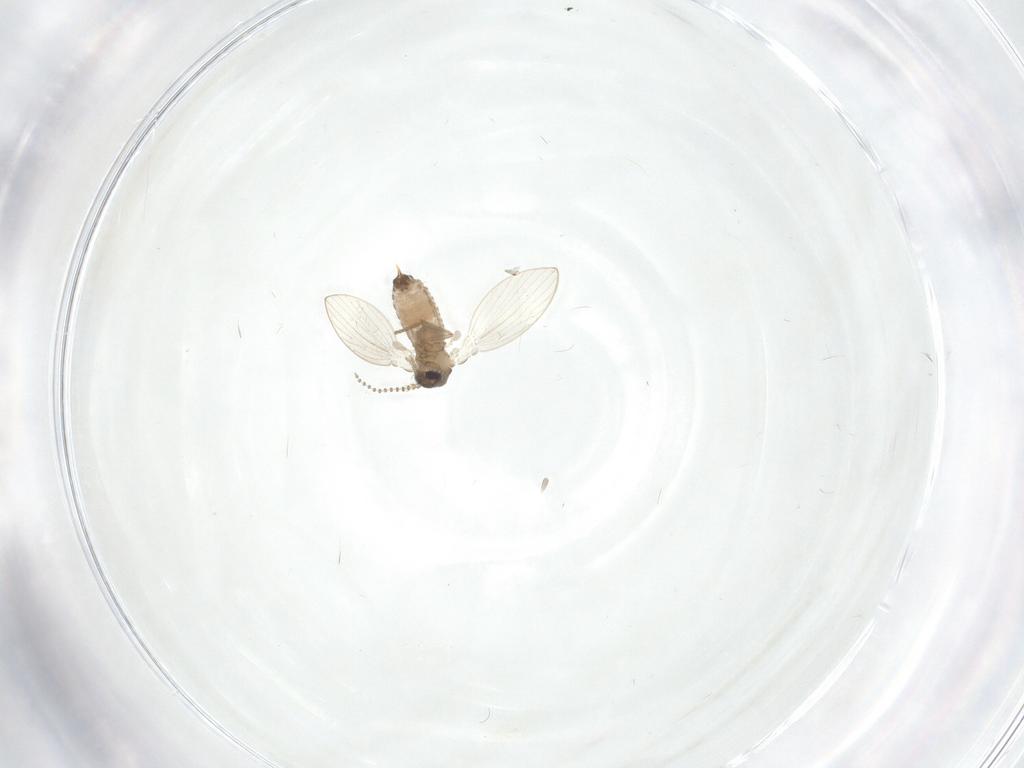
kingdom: Animalia
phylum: Arthropoda
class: Insecta
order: Diptera
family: Psychodidae
